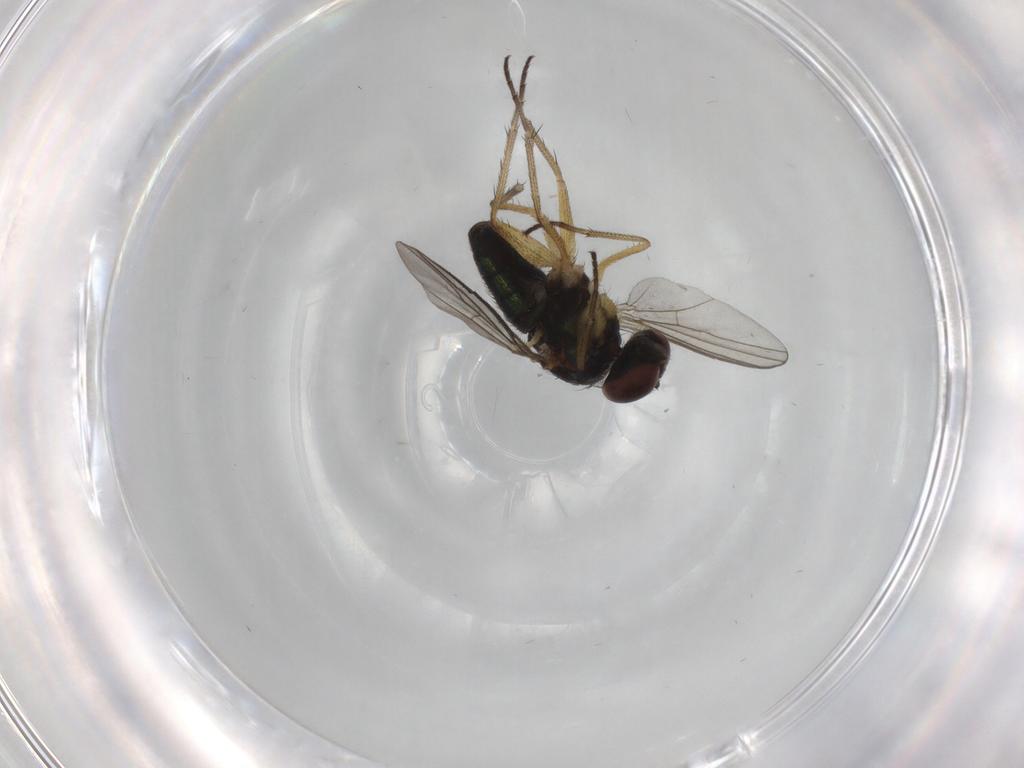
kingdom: Animalia
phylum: Arthropoda
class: Insecta
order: Diptera
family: Dolichopodidae
